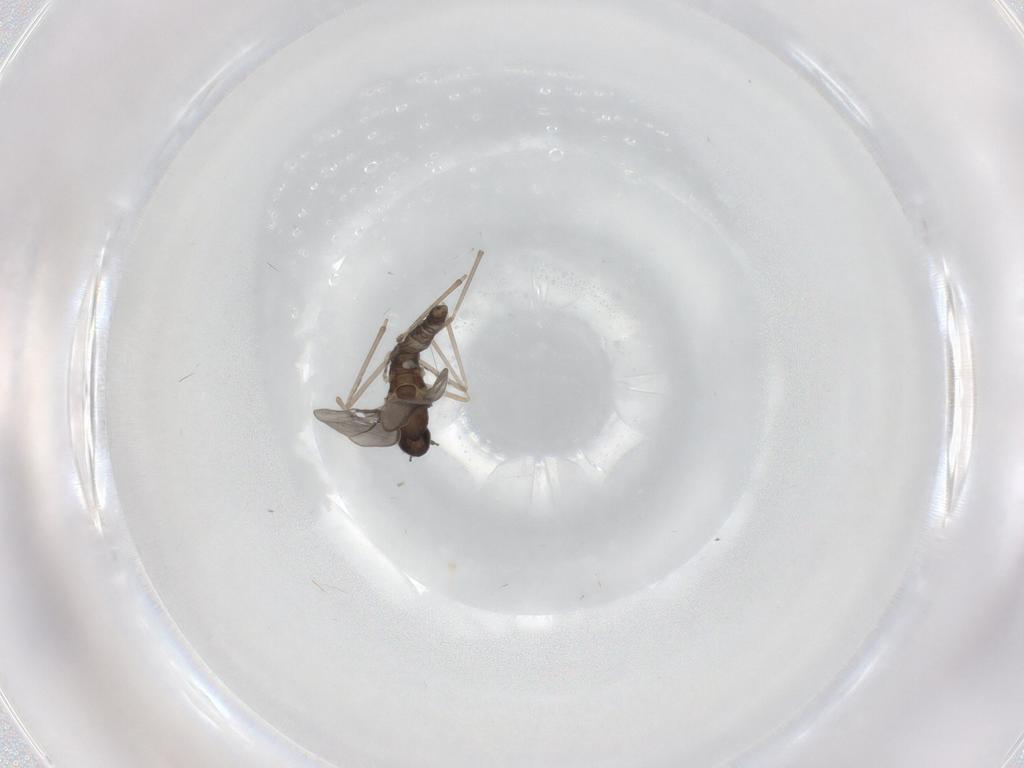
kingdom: Animalia
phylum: Arthropoda
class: Insecta
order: Diptera
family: Cecidomyiidae
